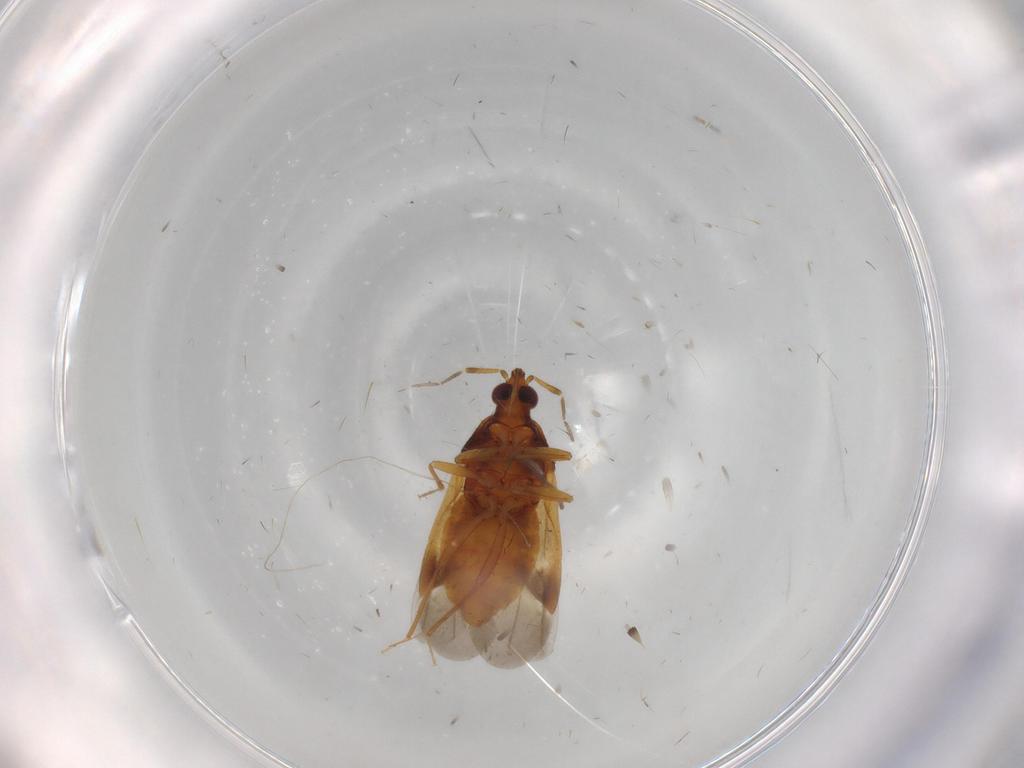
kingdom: Animalia
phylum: Arthropoda
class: Insecta
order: Hemiptera
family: Anthocoridae
